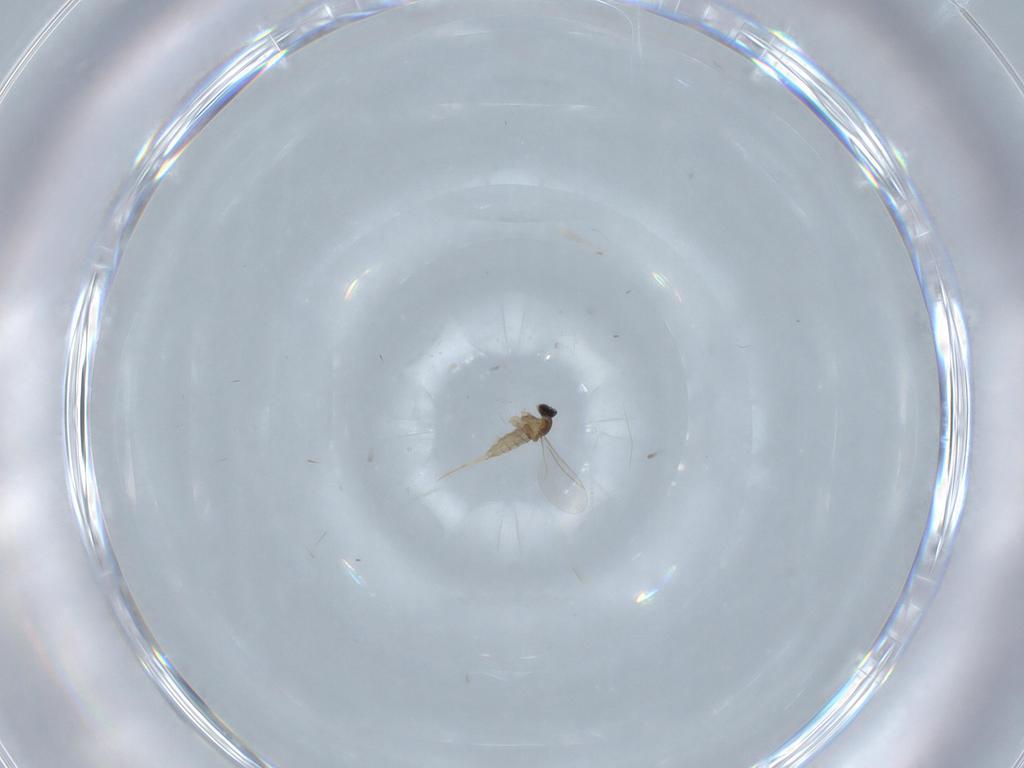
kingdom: Animalia
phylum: Arthropoda
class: Insecta
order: Diptera
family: Cecidomyiidae
